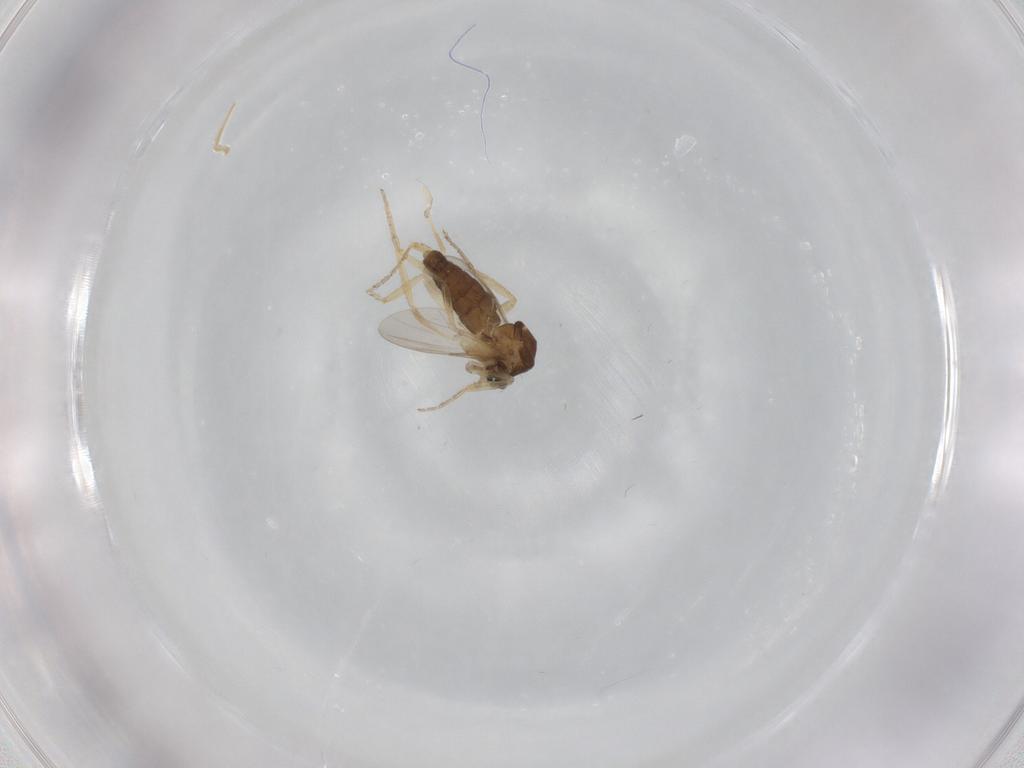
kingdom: Animalia
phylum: Arthropoda
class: Insecta
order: Diptera
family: Ceratopogonidae
